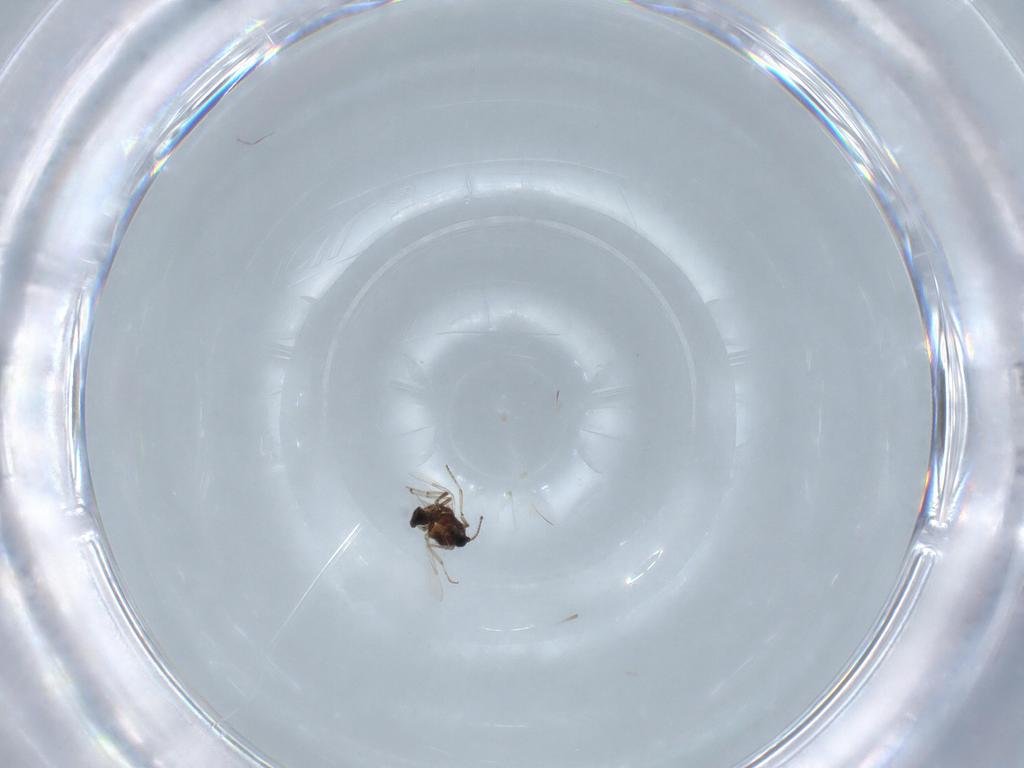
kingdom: Animalia
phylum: Arthropoda
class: Insecta
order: Diptera
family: Ceratopogonidae
